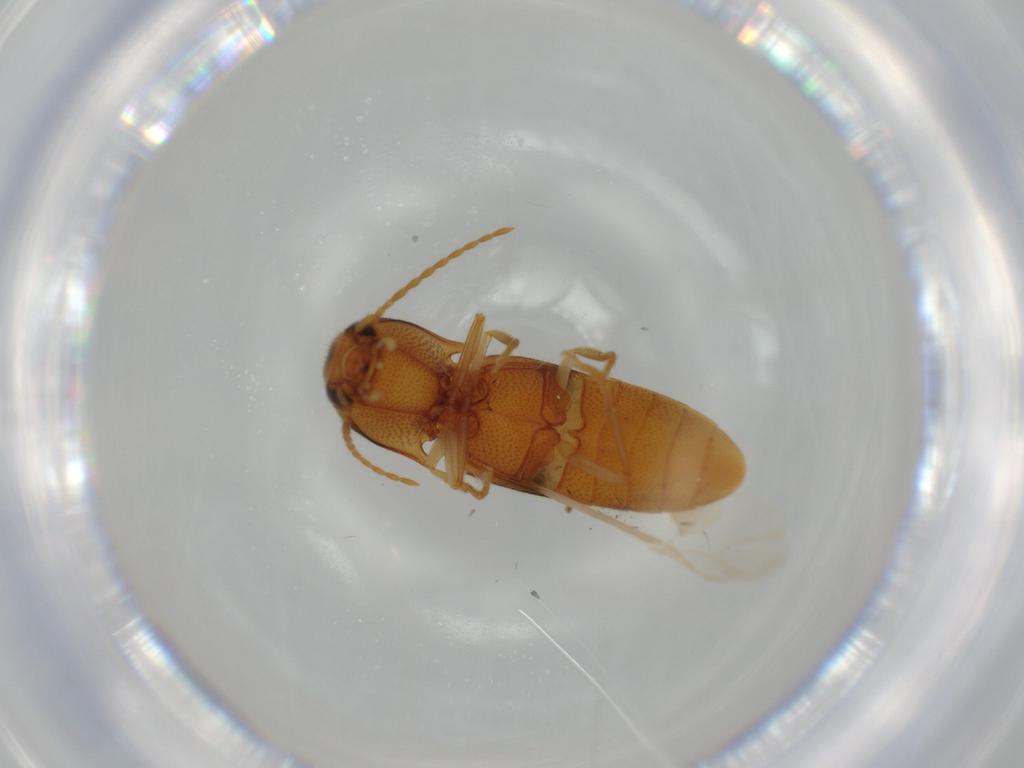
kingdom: Animalia
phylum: Arthropoda
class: Insecta
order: Coleoptera
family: Elateridae
